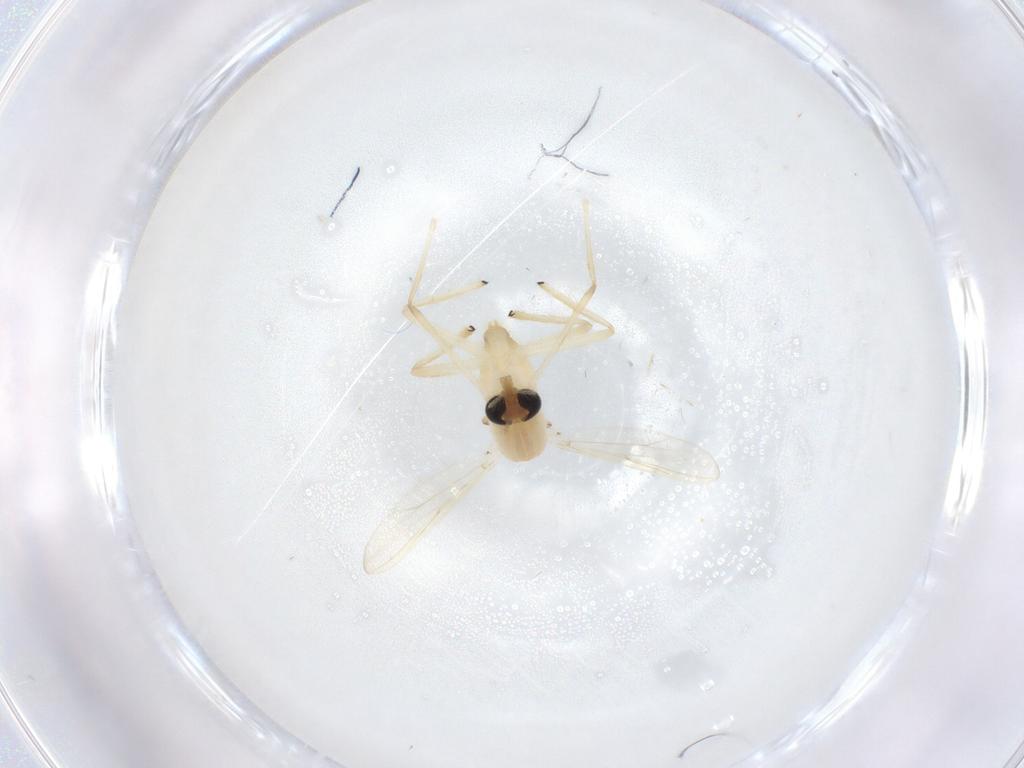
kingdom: Animalia
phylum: Arthropoda
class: Insecta
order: Diptera
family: Chironomidae
